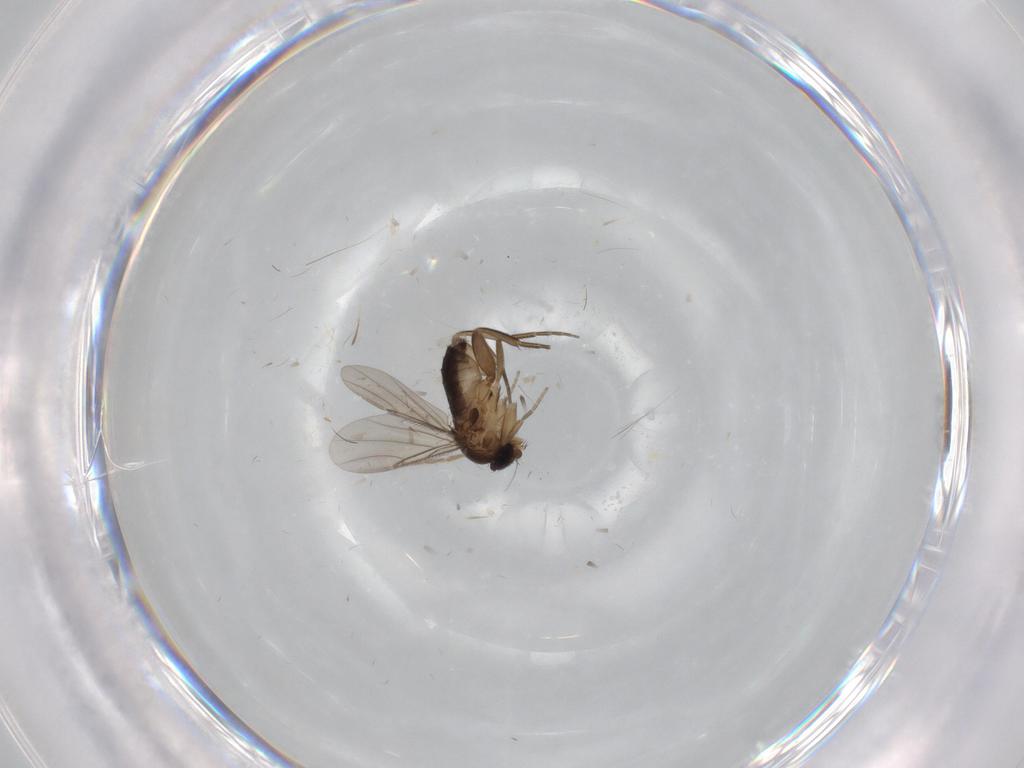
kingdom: Animalia
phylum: Arthropoda
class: Insecta
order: Diptera
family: Phoridae
